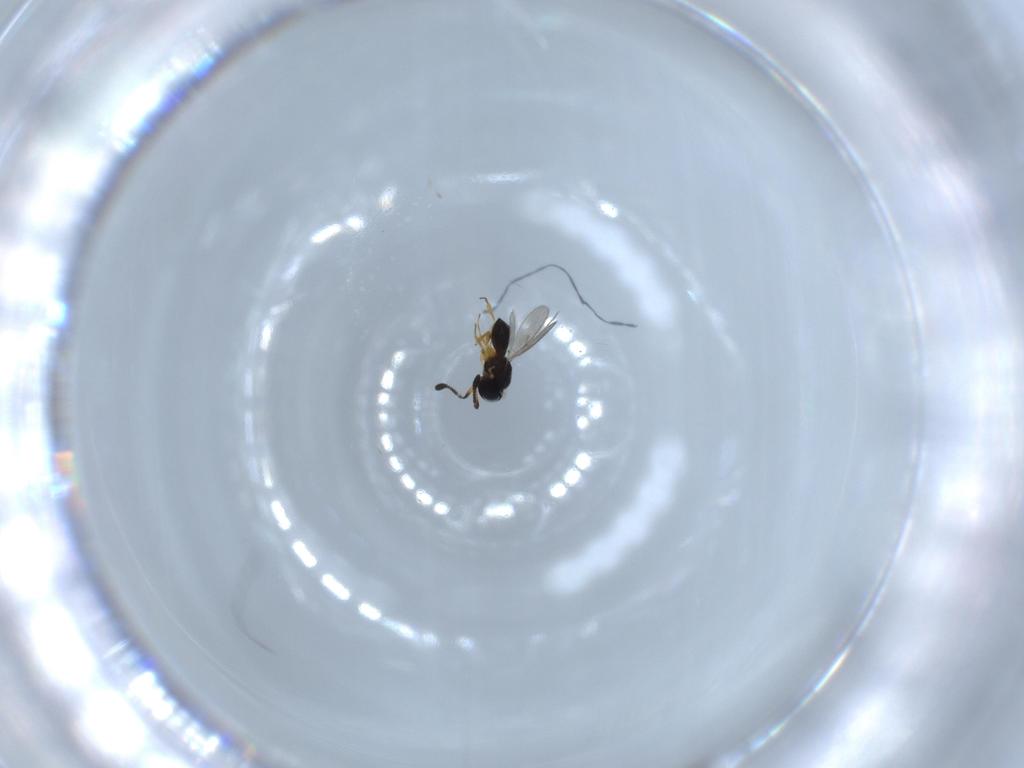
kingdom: Animalia
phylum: Arthropoda
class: Insecta
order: Hymenoptera
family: Scelionidae
